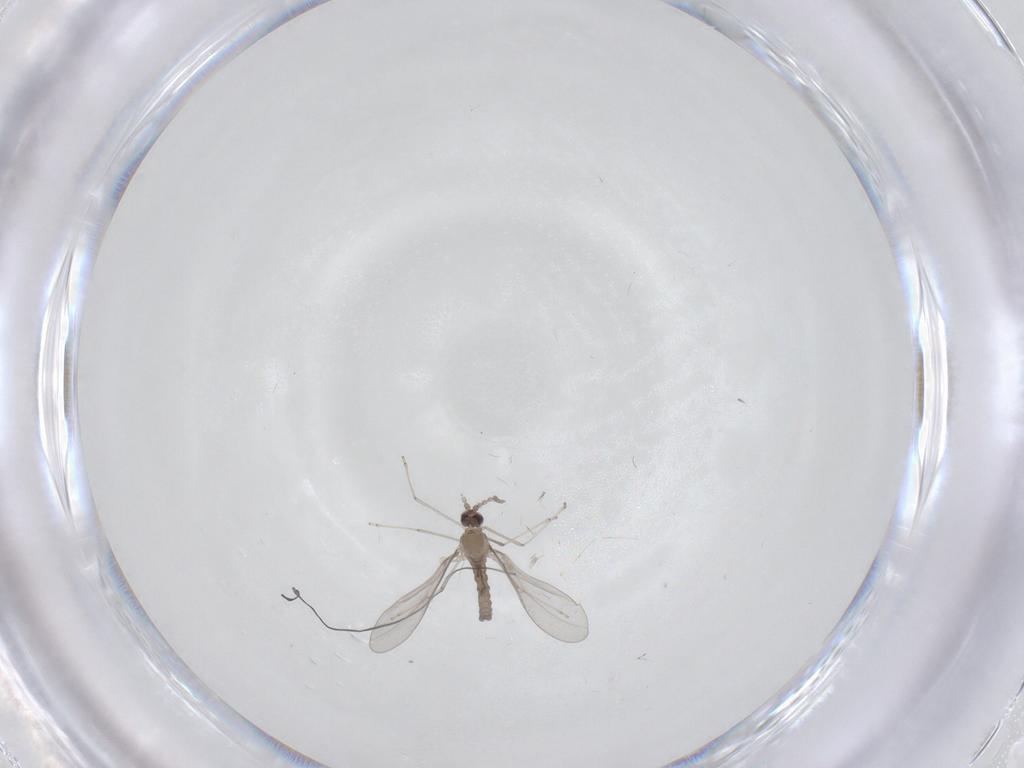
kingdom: Animalia
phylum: Arthropoda
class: Insecta
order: Diptera
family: Cecidomyiidae
